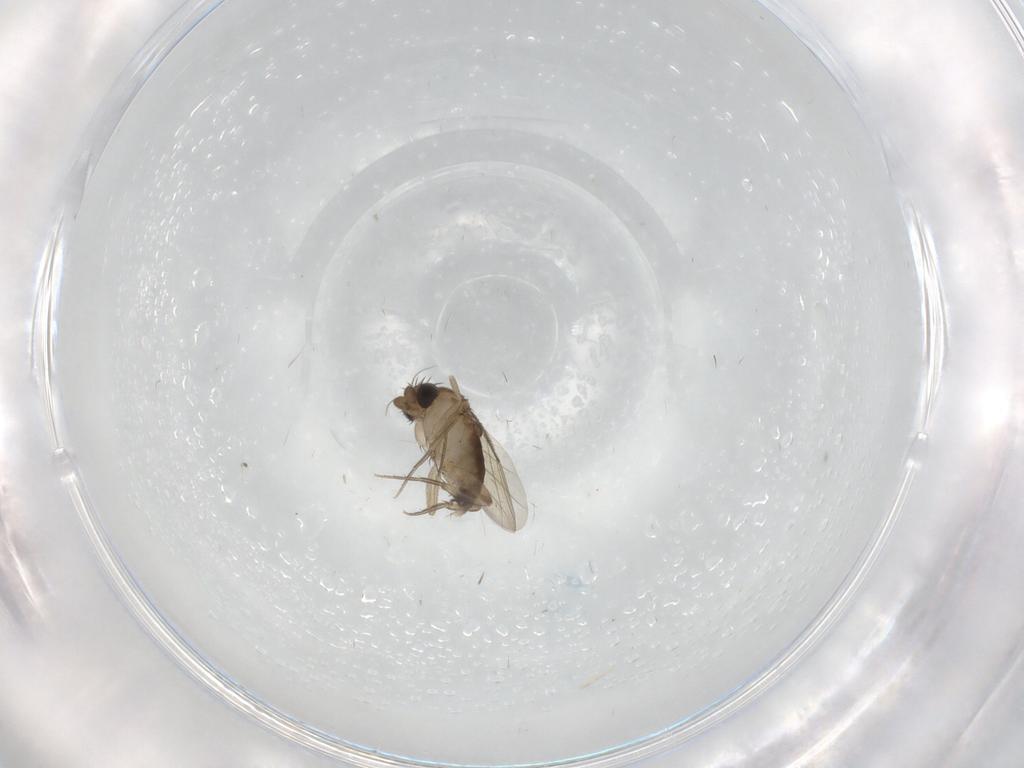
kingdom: Animalia
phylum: Arthropoda
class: Insecta
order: Diptera
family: Phoridae
